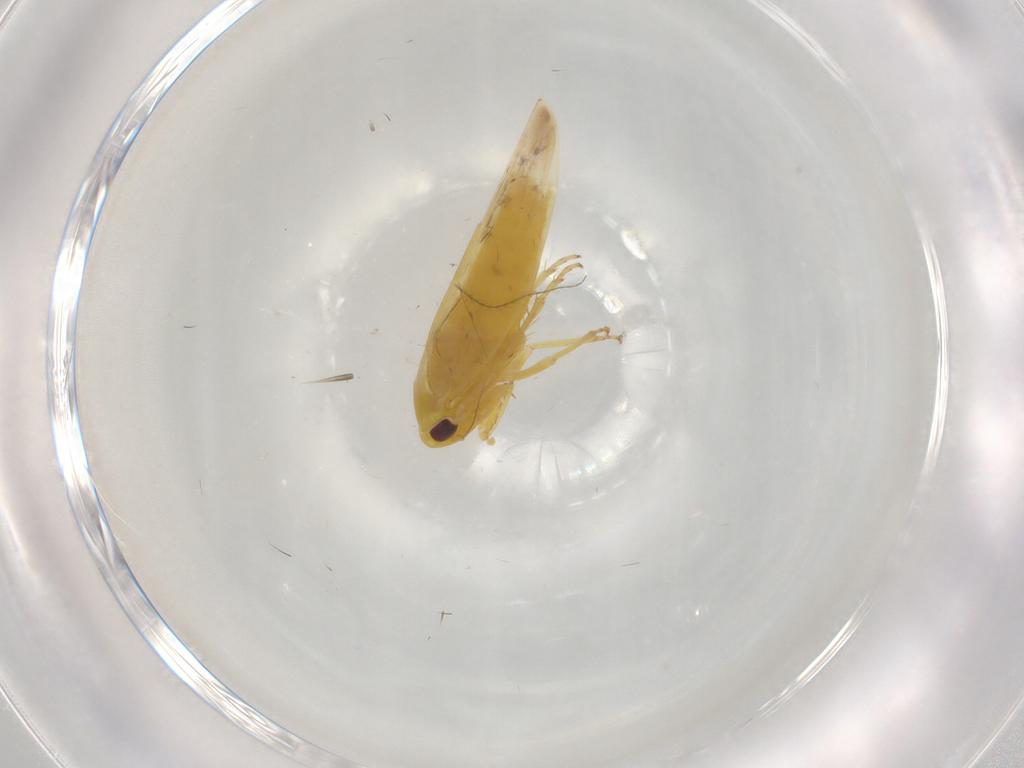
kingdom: Animalia
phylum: Arthropoda
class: Insecta
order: Hemiptera
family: Cicadellidae
